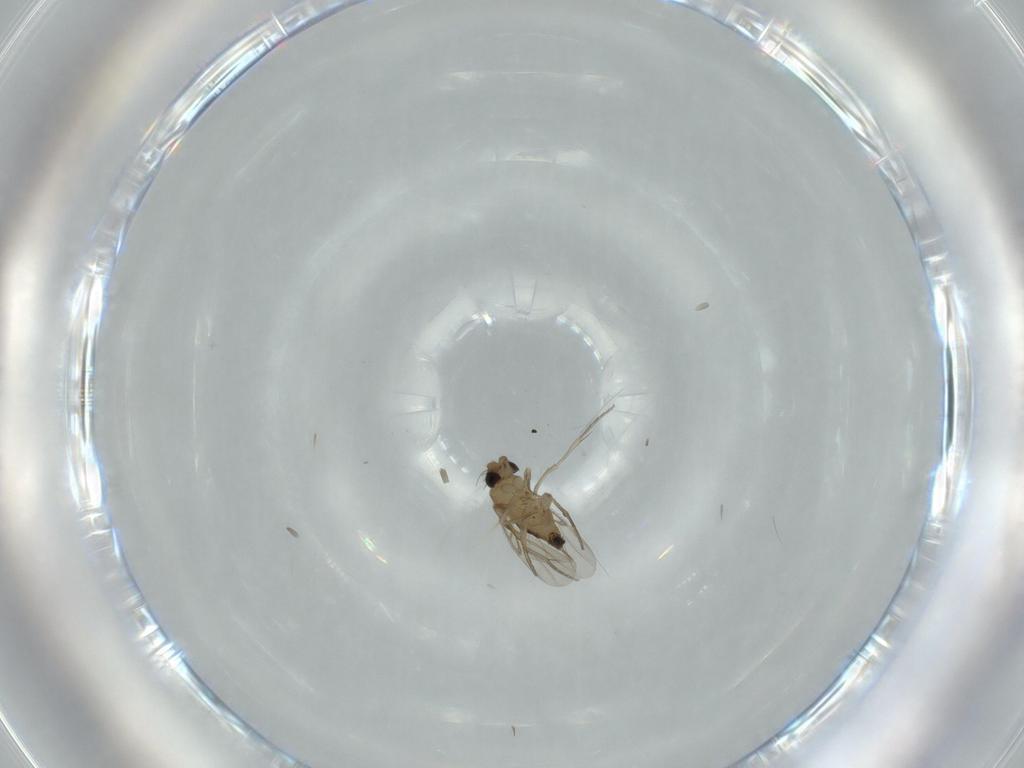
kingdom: Animalia
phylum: Arthropoda
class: Insecta
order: Diptera
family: Phoridae
